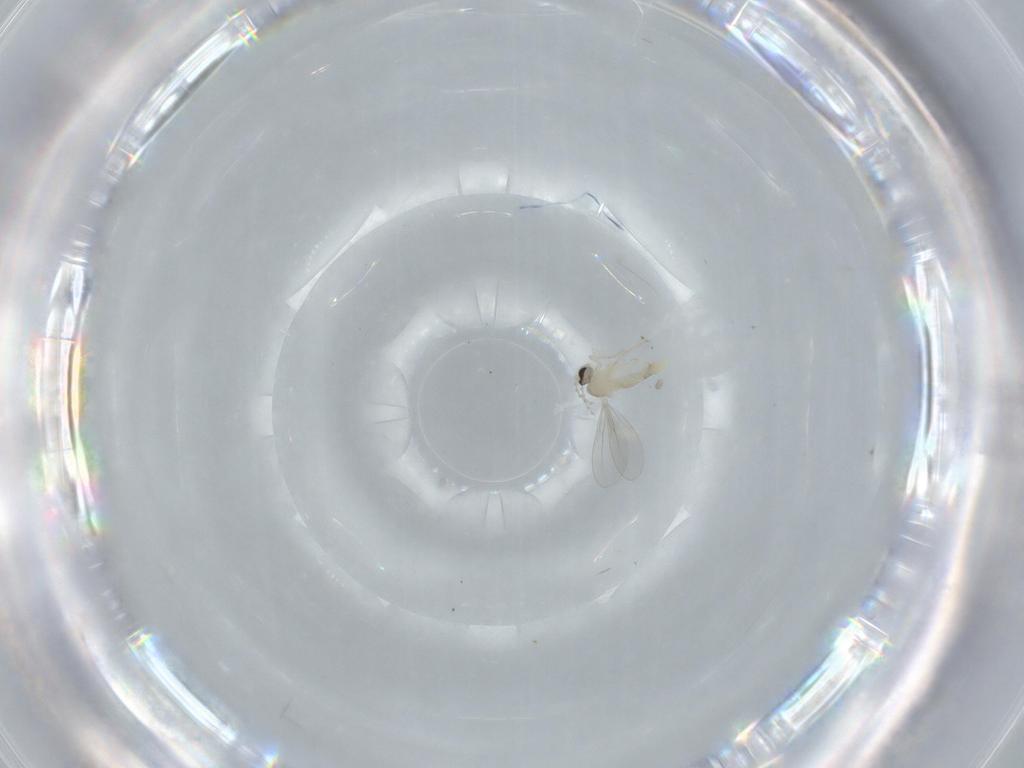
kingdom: Animalia
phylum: Arthropoda
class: Insecta
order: Diptera
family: Cecidomyiidae
